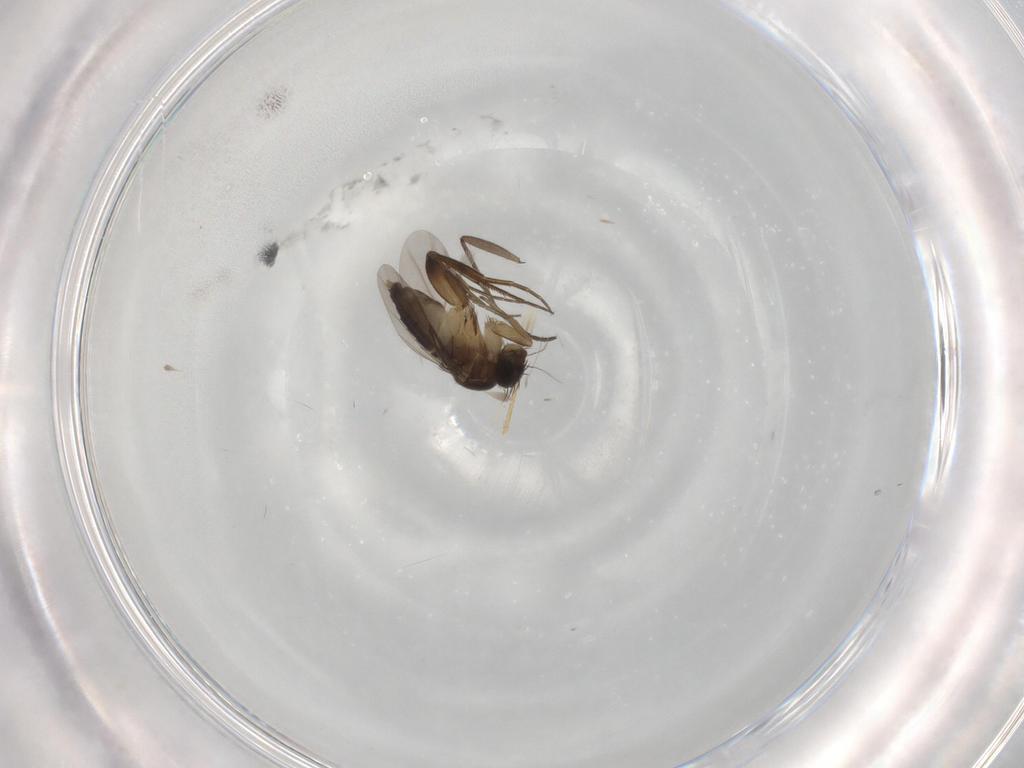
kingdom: Animalia
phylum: Arthropoda
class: Insecta
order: Diptera
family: Phoridae
